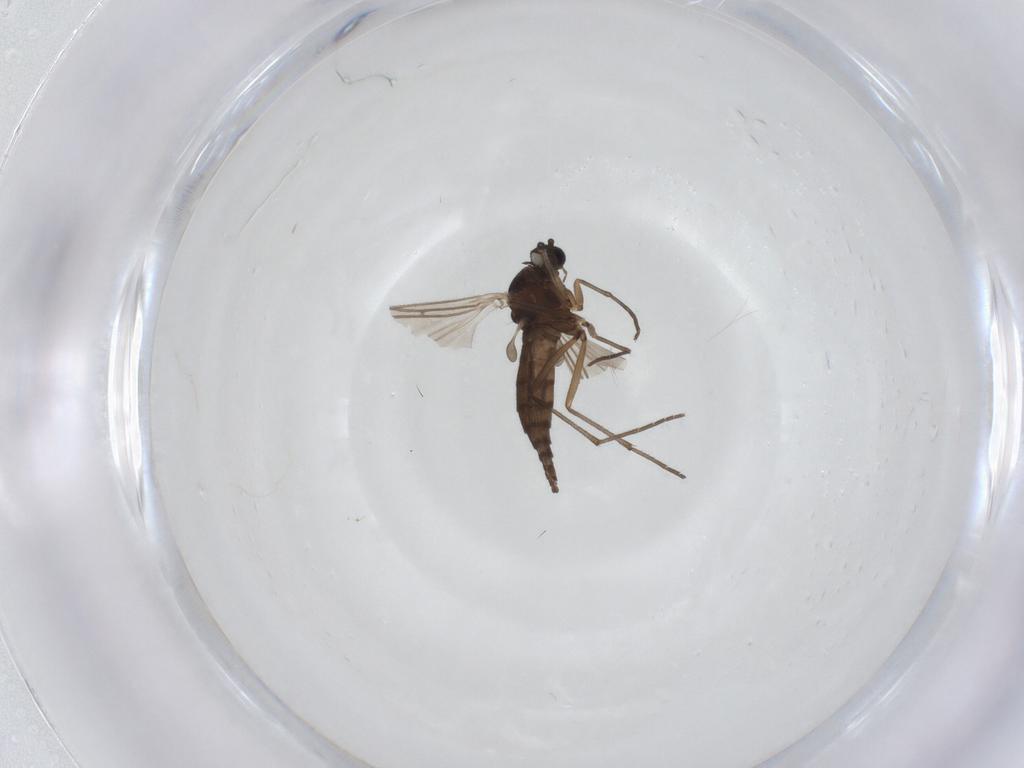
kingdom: Animalia
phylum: Arthropoda
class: Insecta
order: Diptera
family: Sciaridae
